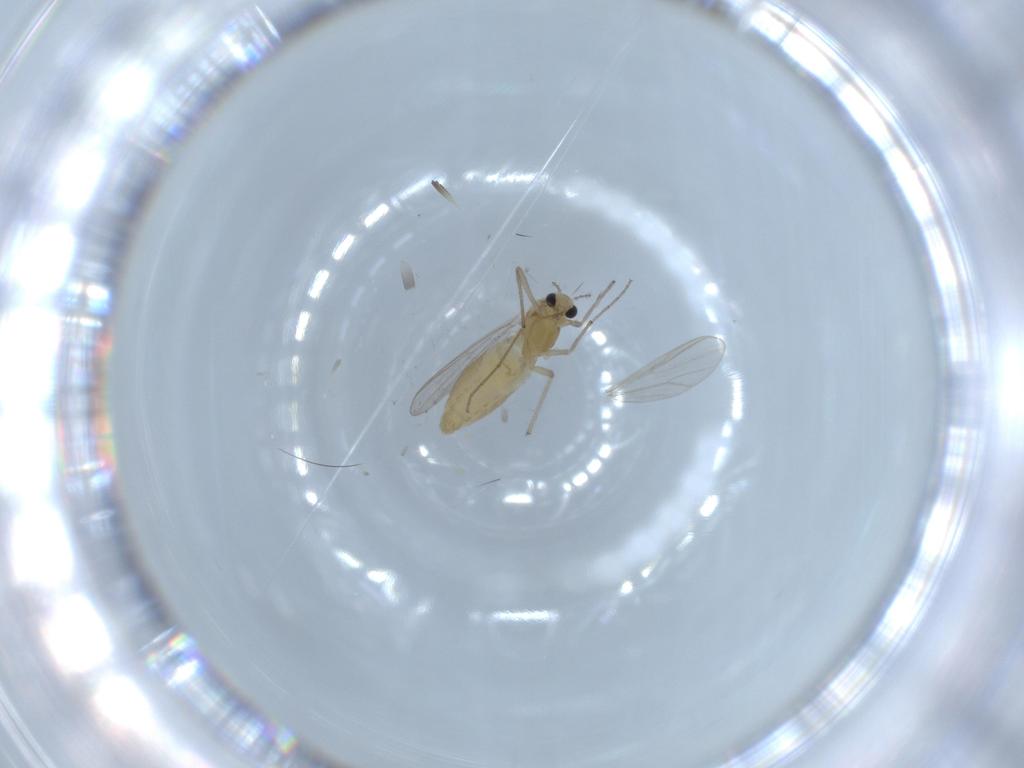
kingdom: Animalia
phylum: Arthropoda
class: Insecta
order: Diptera
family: Chironomidae
